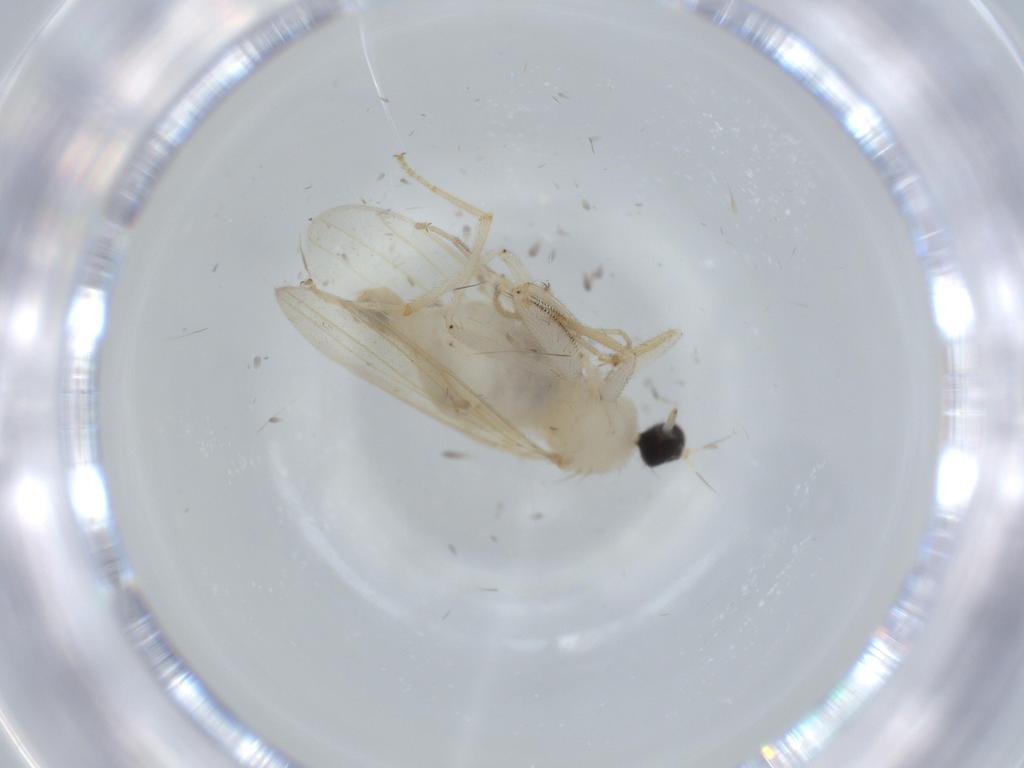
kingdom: Animalia
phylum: Arthropoda
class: Insecta
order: Diptera
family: Hybotidae
